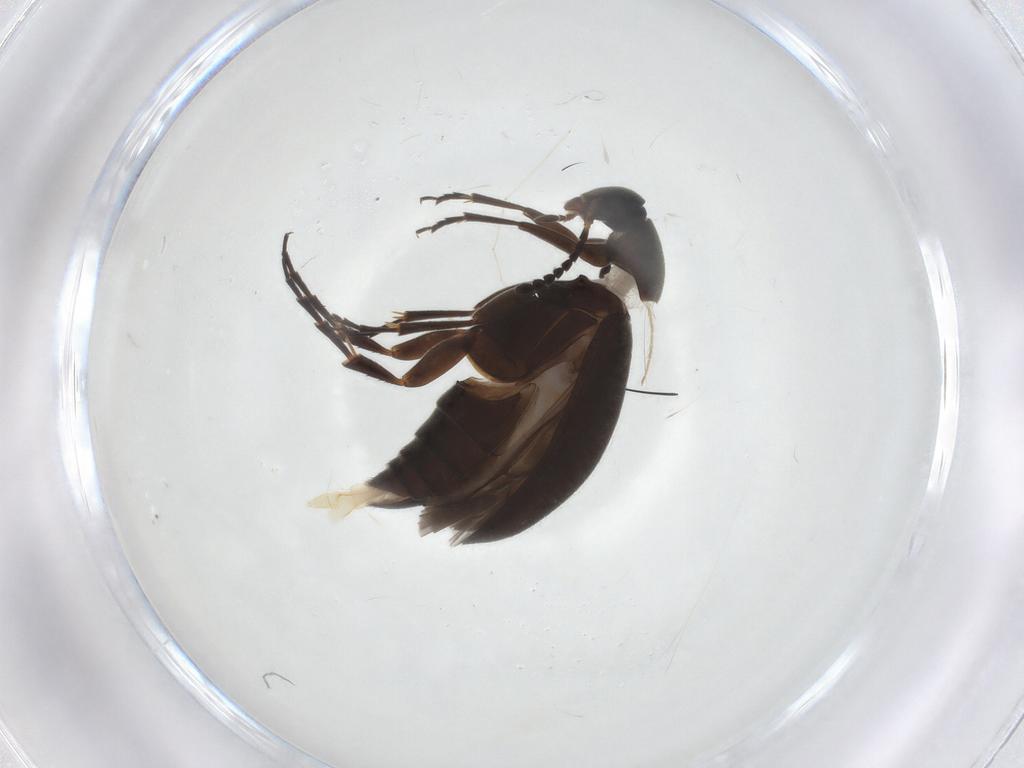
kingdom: Animalia
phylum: Arthropoda
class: Insecta
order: Coleoptera
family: Scraptiidae
